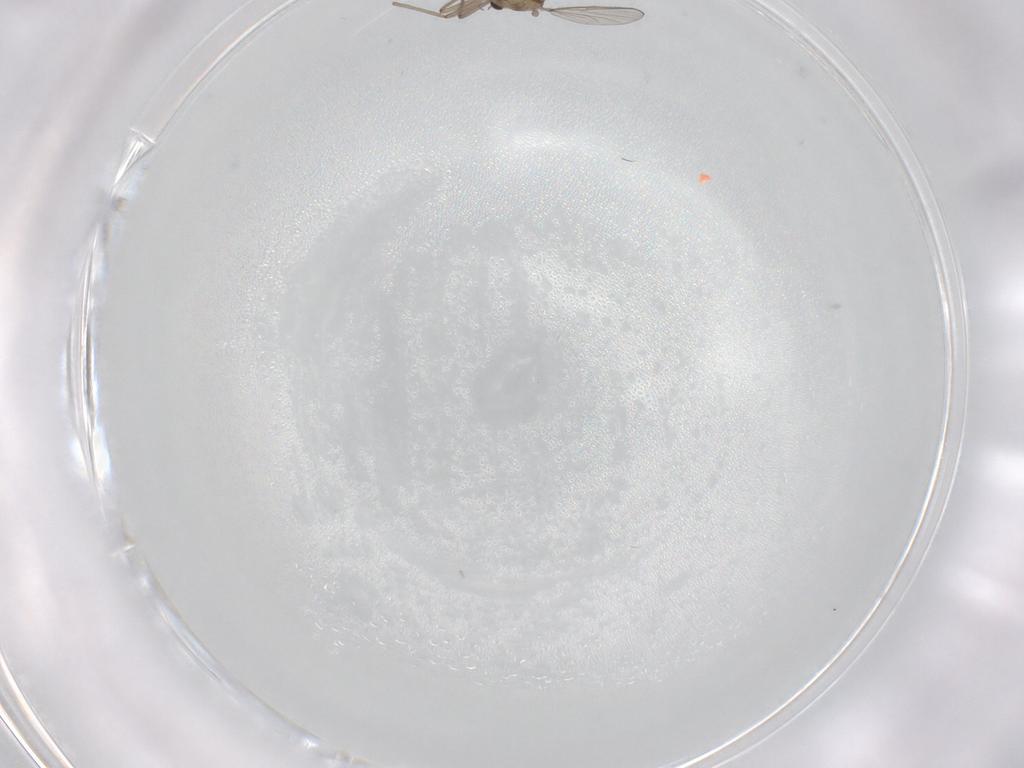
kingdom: Animalia
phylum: Arthropoda
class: Insecta
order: Diptera
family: Chironomidae
